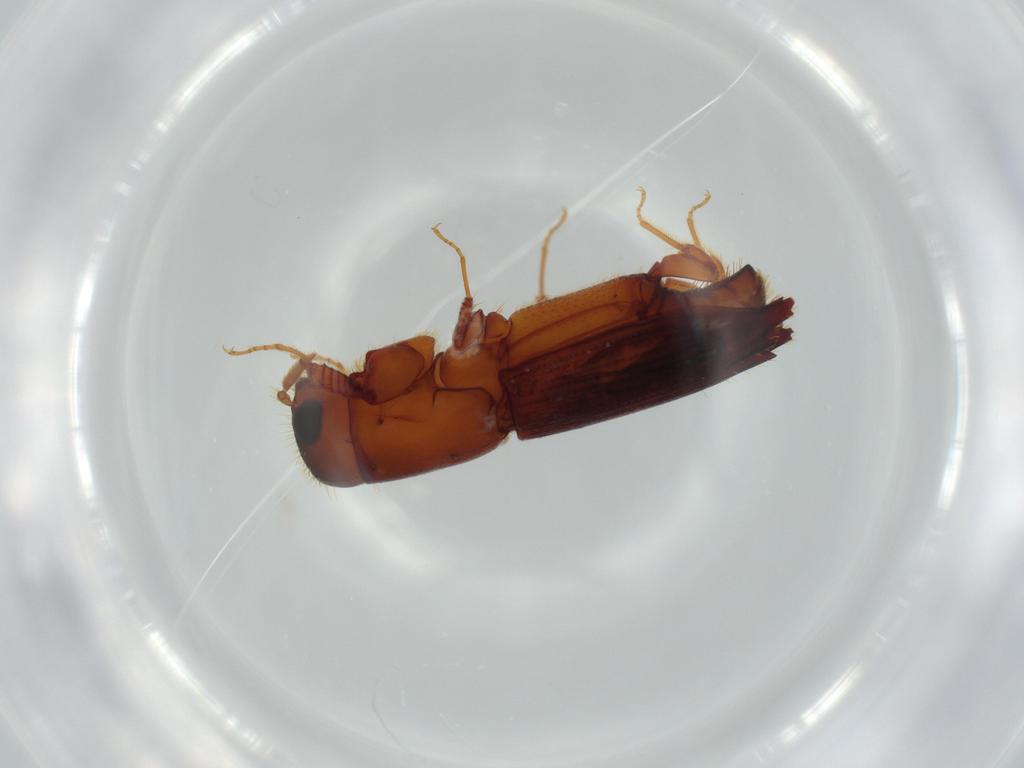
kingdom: Animalia
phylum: Arthropoda
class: Insecta
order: Coleoptera
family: Curculionidae
